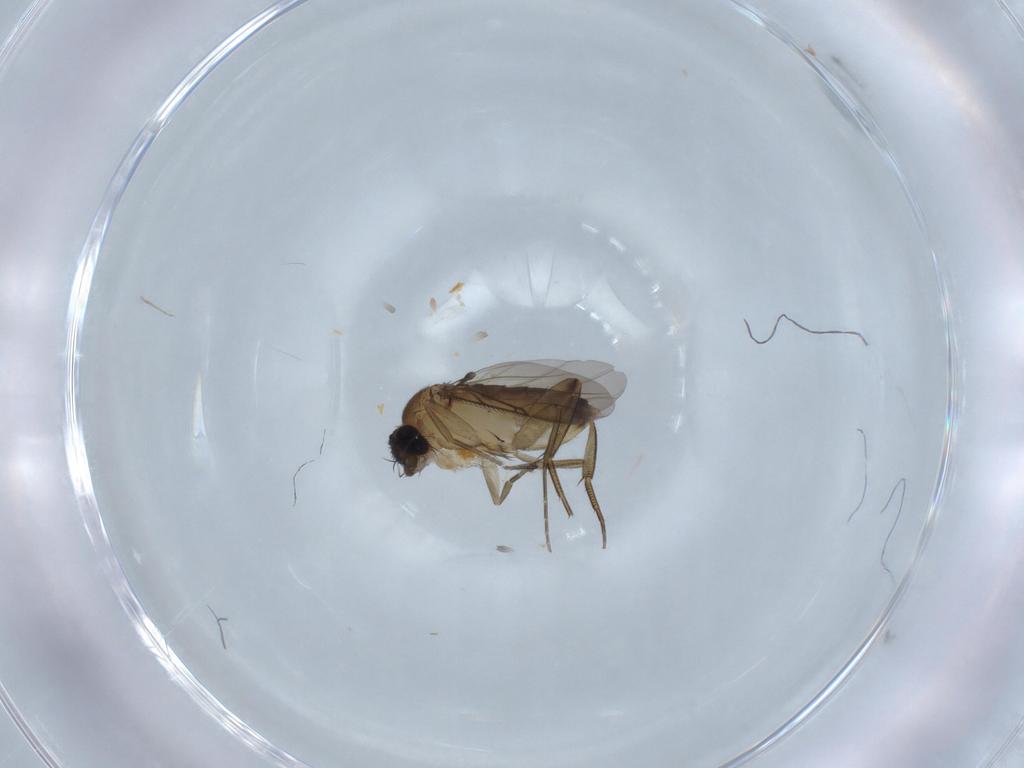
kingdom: Animalia
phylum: Arthropoda
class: Insecta
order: Diptera
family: Phoridae
